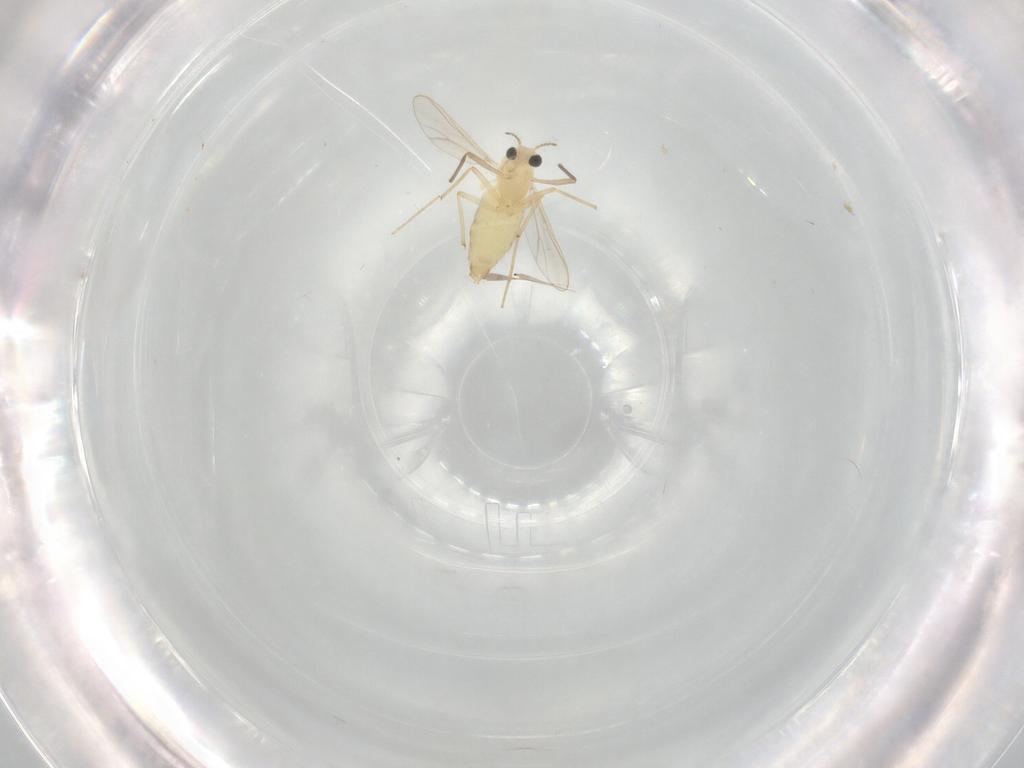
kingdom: Animalia
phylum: Arthropoda
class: Insecta
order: Diptera
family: Chironomidae
